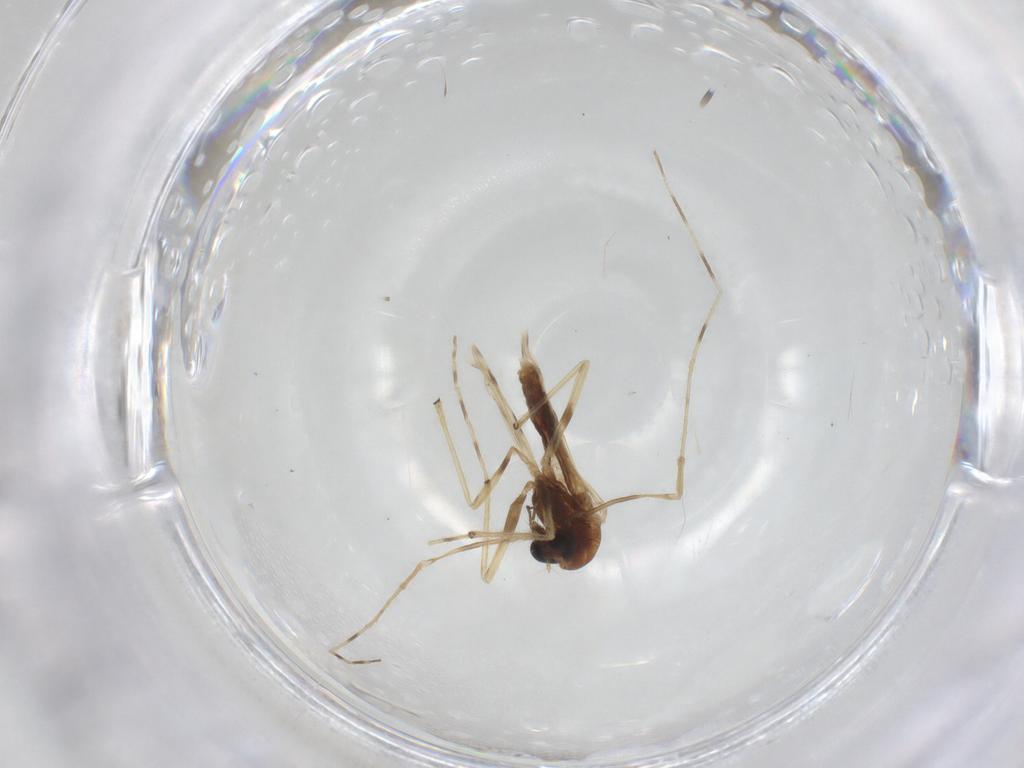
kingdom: Animalia
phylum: Arthropoda
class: Insecta
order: Diptera
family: Chironomidae
